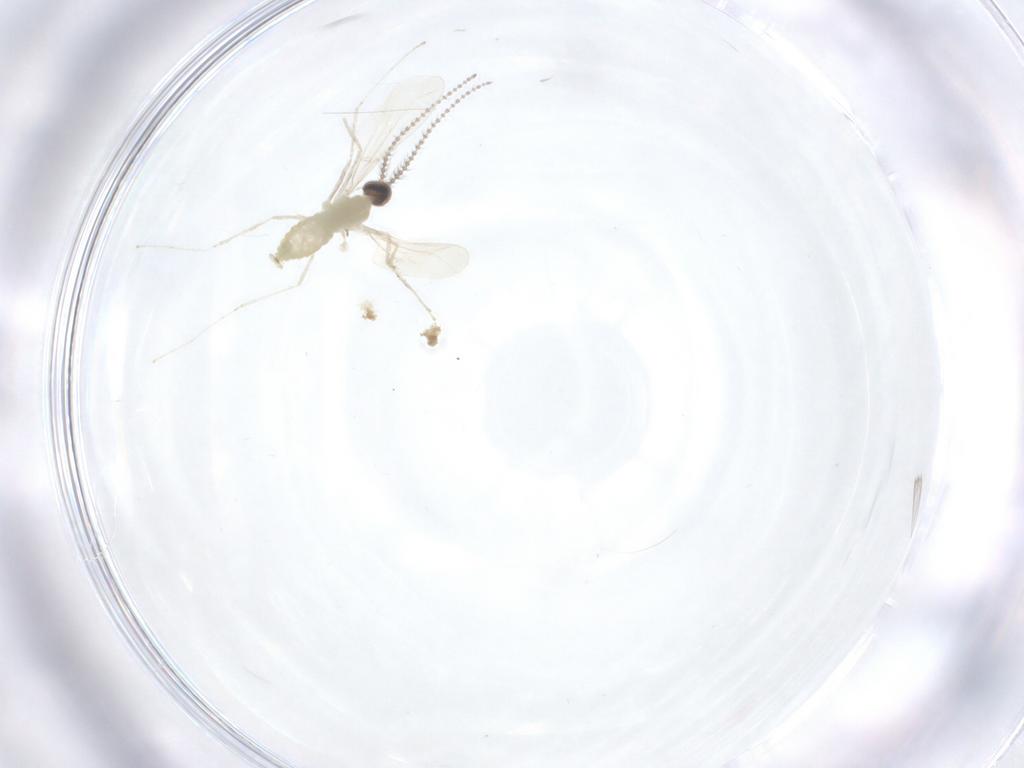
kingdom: Animalia
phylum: Arthropoda
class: Insecta
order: Diptera
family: Cecidomyiidae
